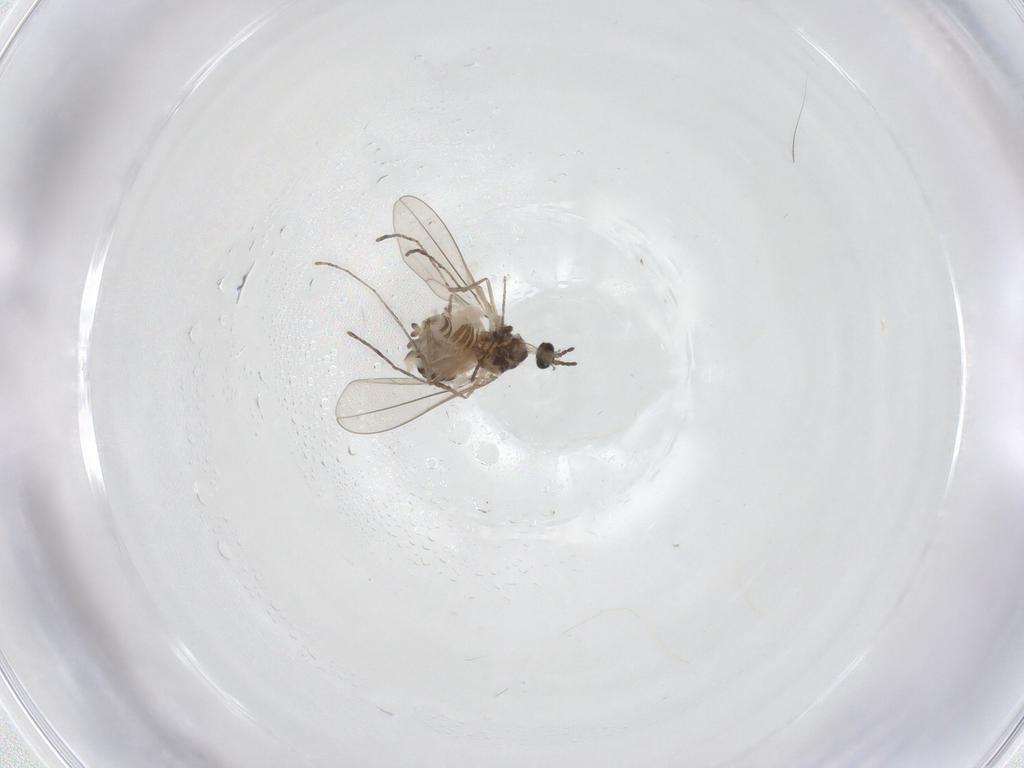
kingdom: Animalia
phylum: Arthropoda
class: Insecta
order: Diptera
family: Cecidomyiidae
